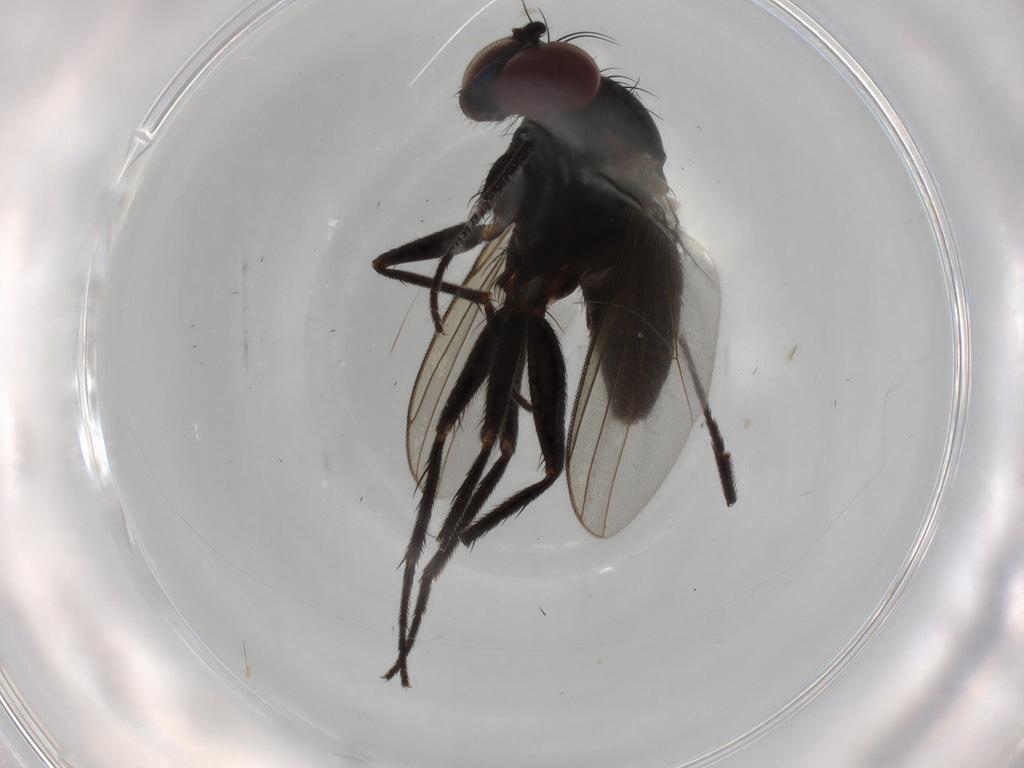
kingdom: Animalia
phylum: Arthropoda
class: Insecta
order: Diptera
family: Dolichopodidae
